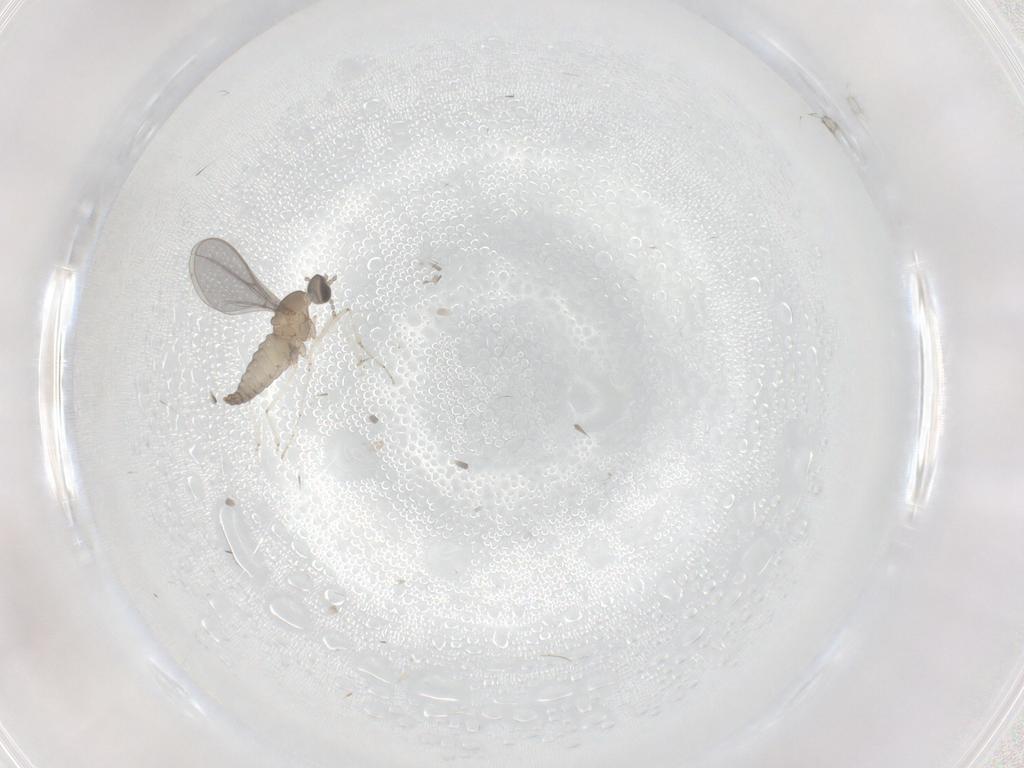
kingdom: Animalia
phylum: Arthropoda
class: Insecta
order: Diptera
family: Cecidomyiidae
